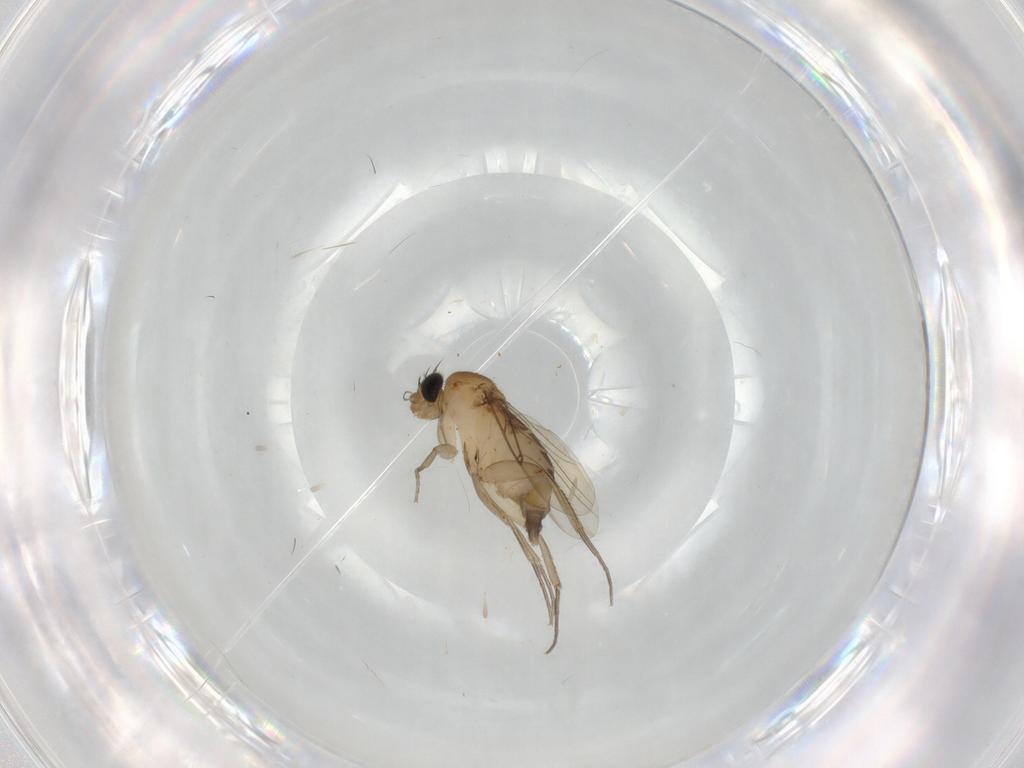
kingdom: Animalia
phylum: Arthropoda
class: Insecta
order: Diptera
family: Phoridae
